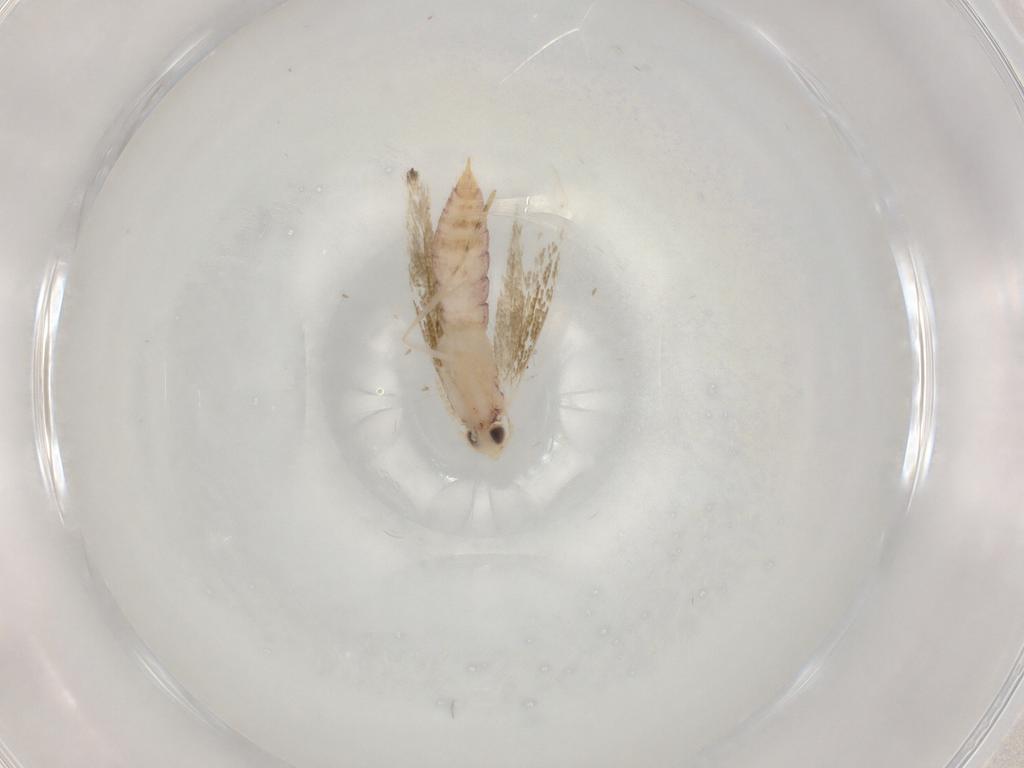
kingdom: Animalia
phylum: Arthropoda
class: Insecta
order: Lepidoptera
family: Lyonetiidae
